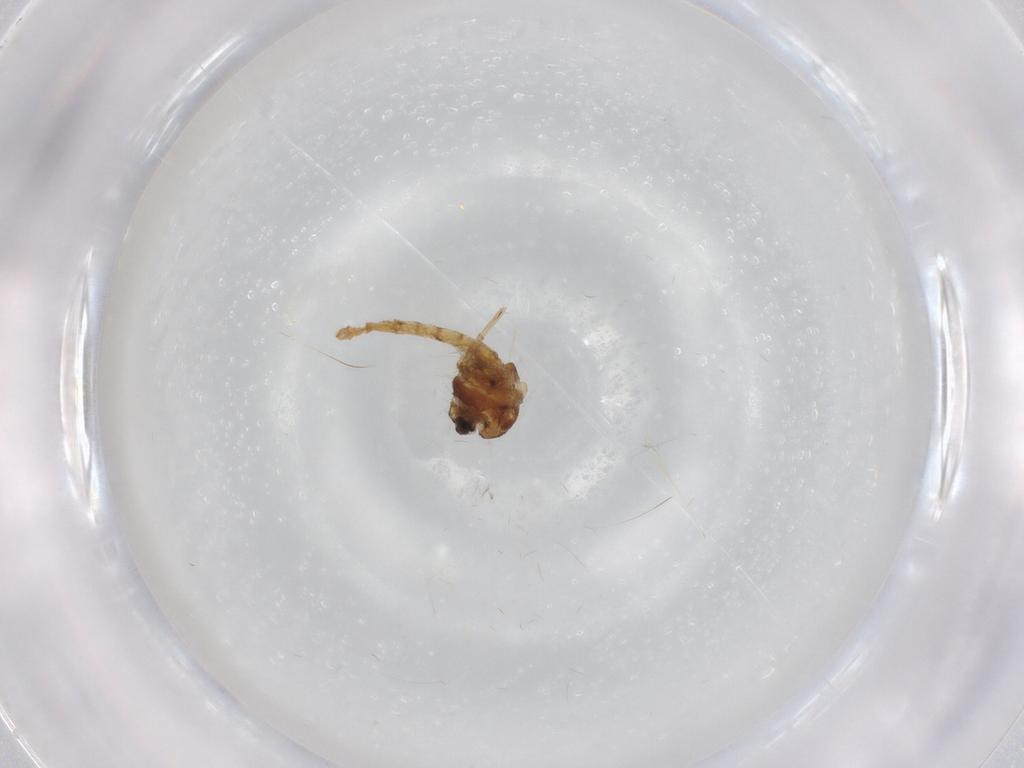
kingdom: Animalia
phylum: Arthropoda
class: Insecta
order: Diptera
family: Chironomidae
